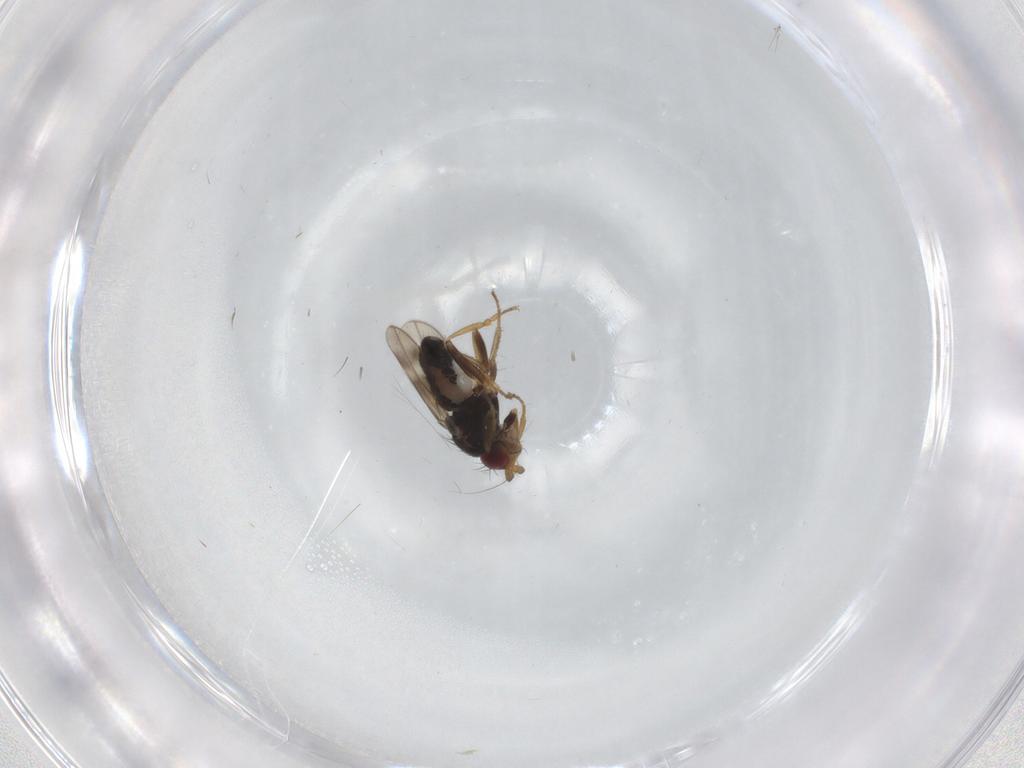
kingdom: Animalia
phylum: Arthropoda
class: Insecta
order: Diptera
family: Sphaeroceridae
